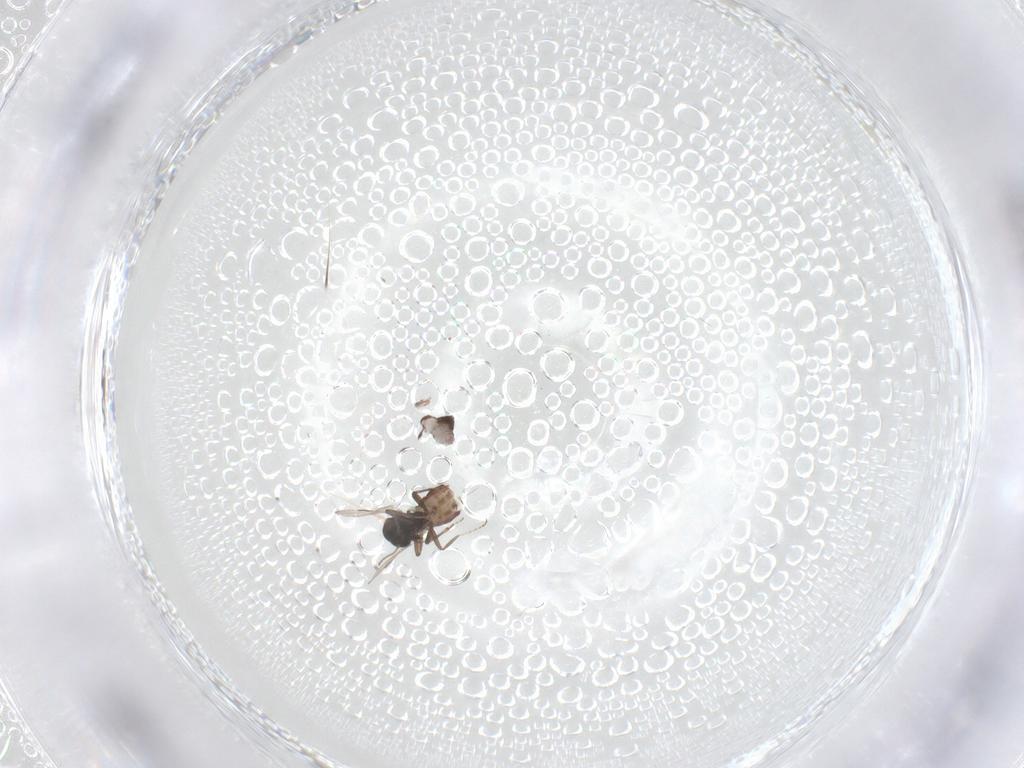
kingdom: Animalia
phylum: Arthropoda
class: Insecta
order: Diptera
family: Ceratopogonidae
